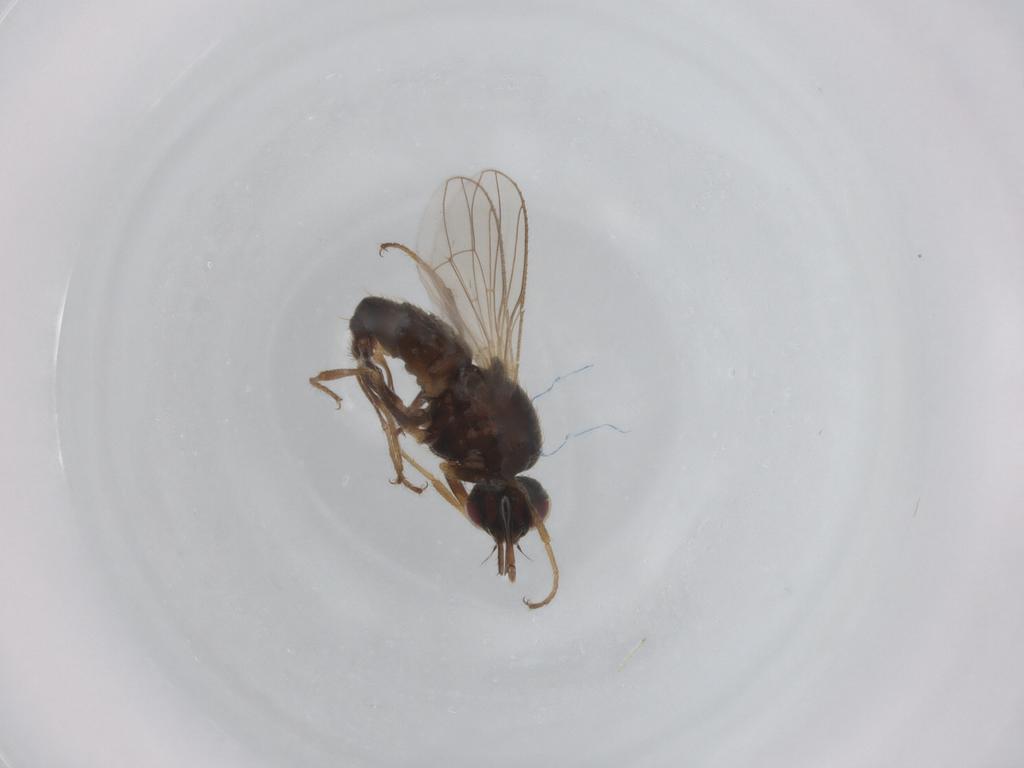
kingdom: Animalia
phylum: Arthropoda
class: Insecta
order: Diptera
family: Muscidae
